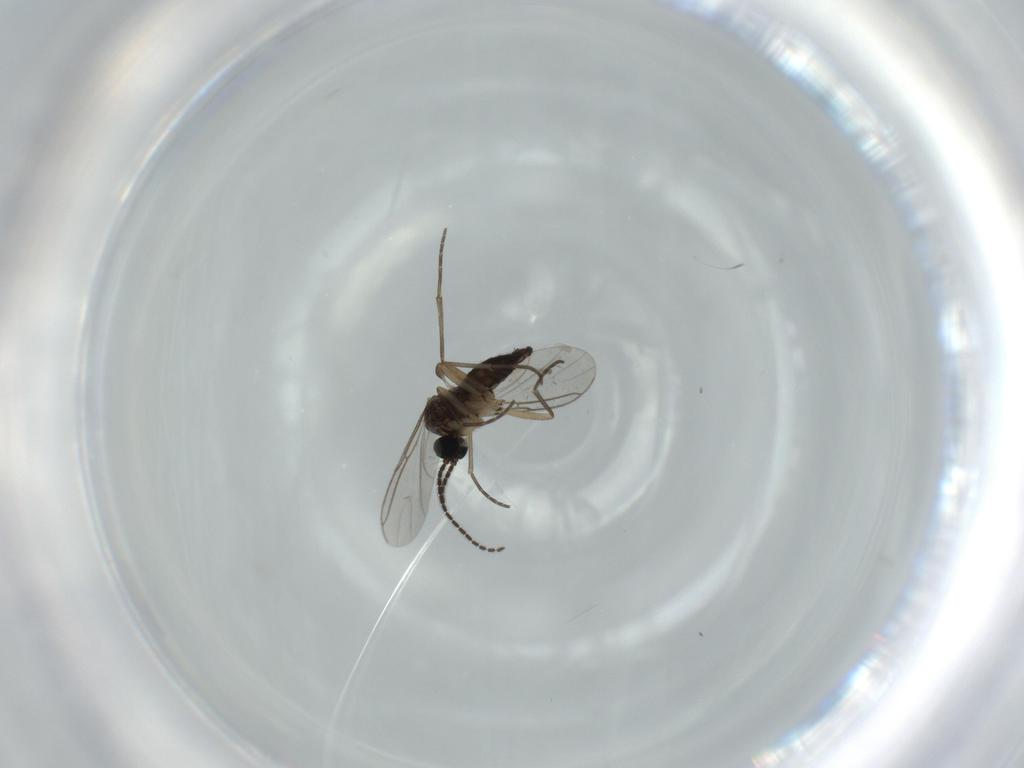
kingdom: Animalia
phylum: Arthropoda
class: Insecta
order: Diptera
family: Sciaridae
